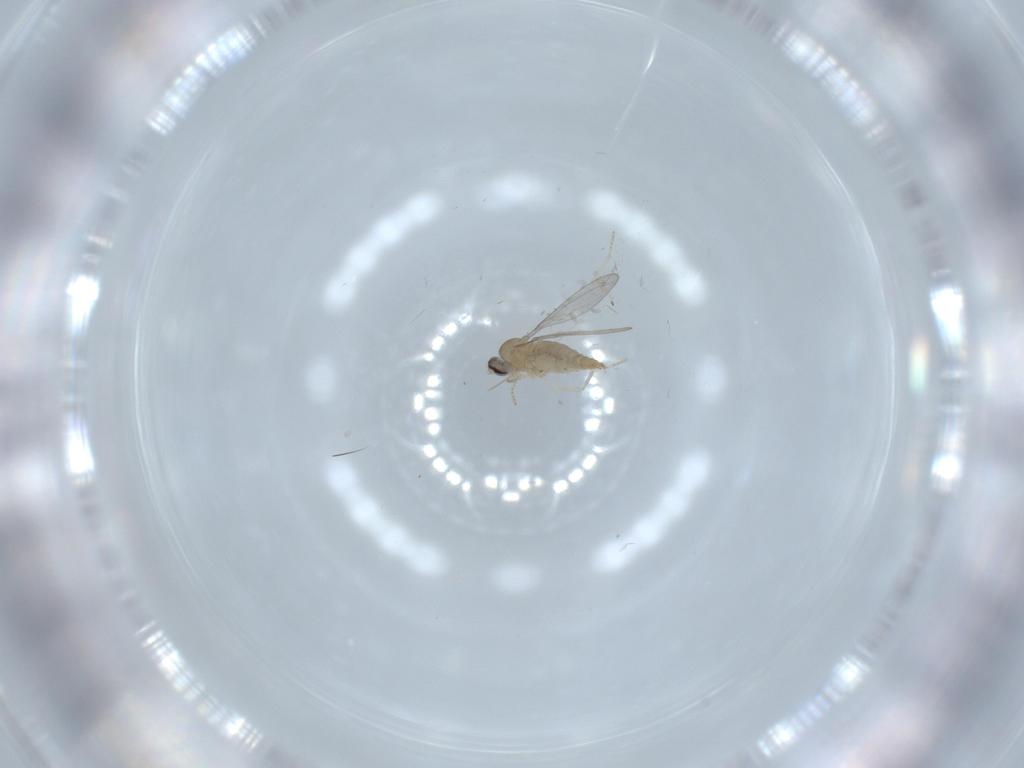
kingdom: Animalia
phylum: Arthropoda
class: Insecta
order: Diptera
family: Cecidomyiidae
